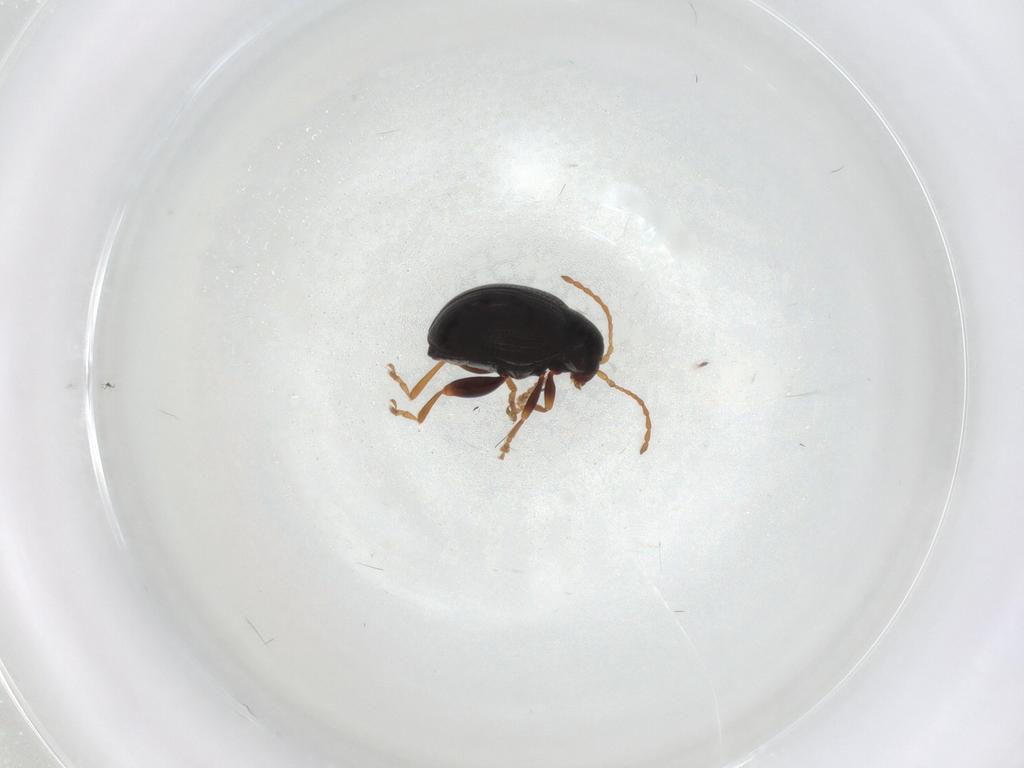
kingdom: Animalia
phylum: Arthropoda
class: Insecta
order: Coleoptera
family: Chrysomelidae
